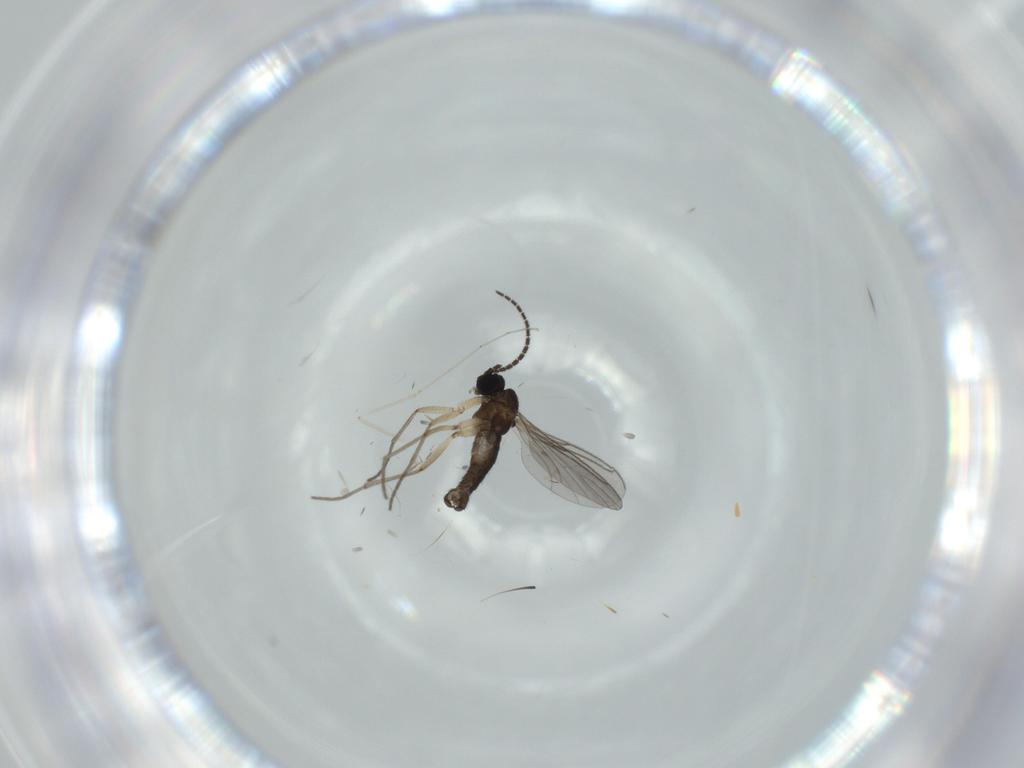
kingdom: Animalia
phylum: Arthropoda
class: Insecta
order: Diptera
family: Sciaridae
